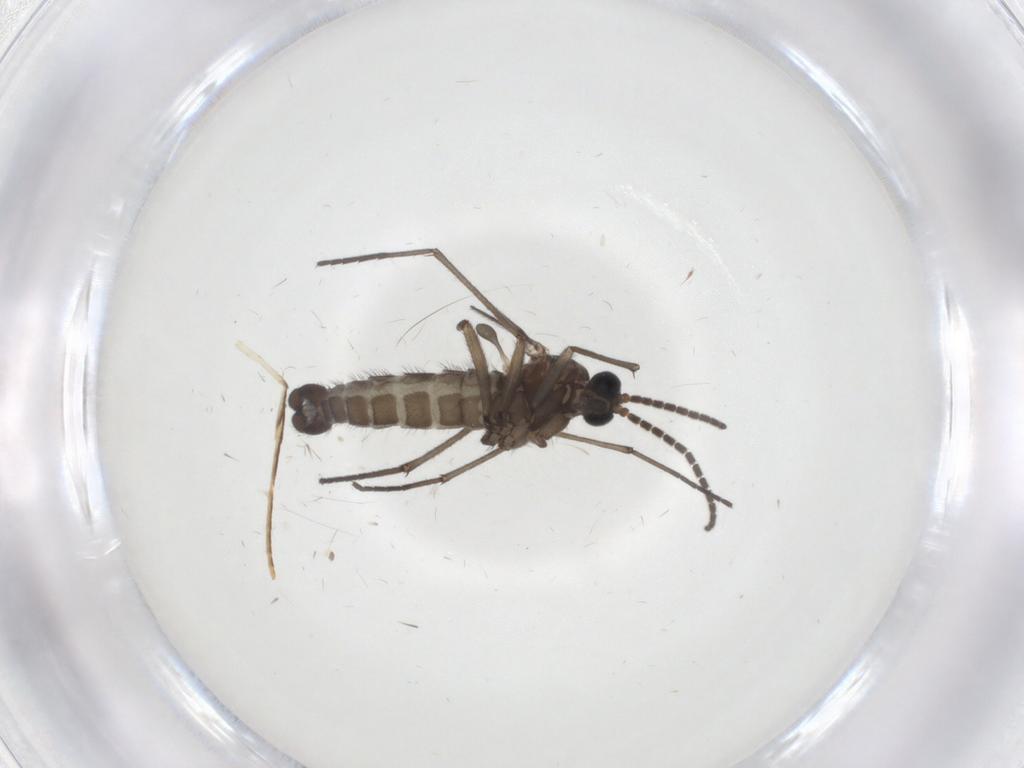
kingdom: Animalia
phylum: Arthropoda
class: Insecta
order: Diptera
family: Sciaridae
